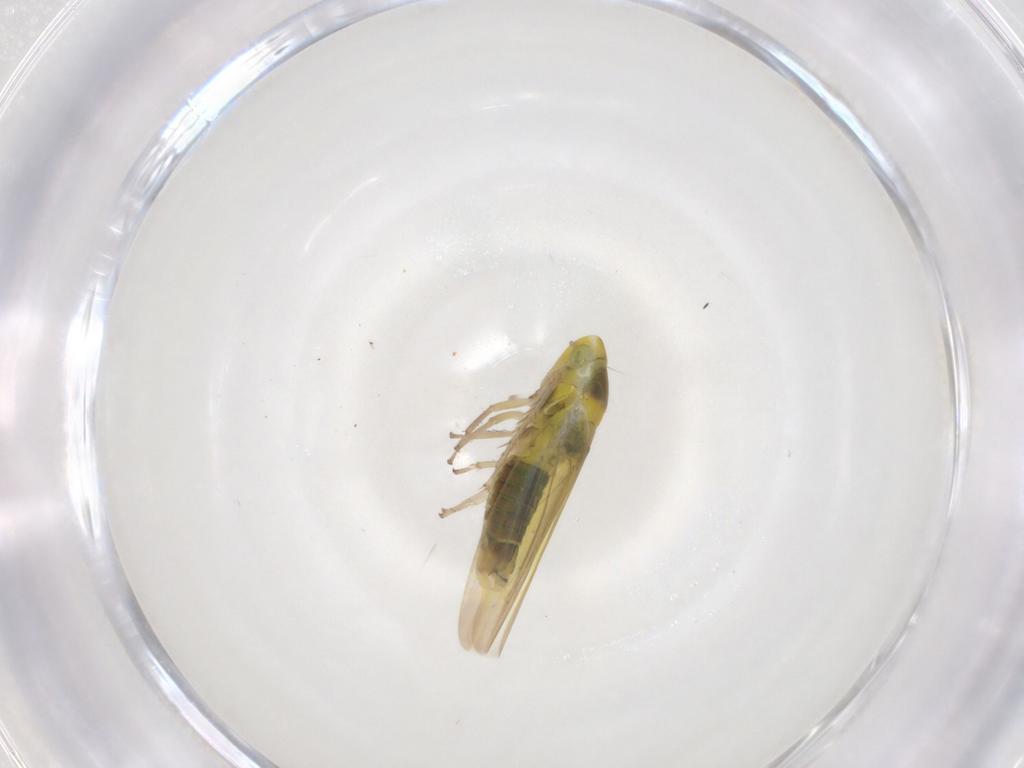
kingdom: Animalia
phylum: Arthropoda
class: Insecta
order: Hemiptera
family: Cicadellidae
